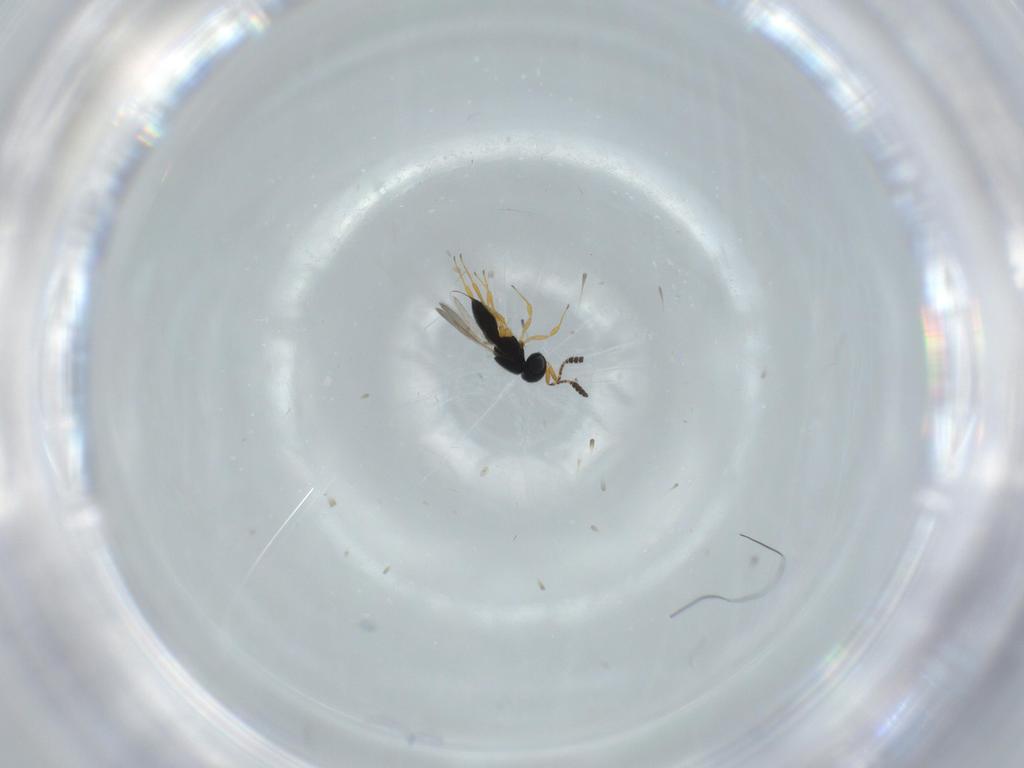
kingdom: Animalia
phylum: Arthropoda
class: Insecta
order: Hymenoptera
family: Scelionidae
